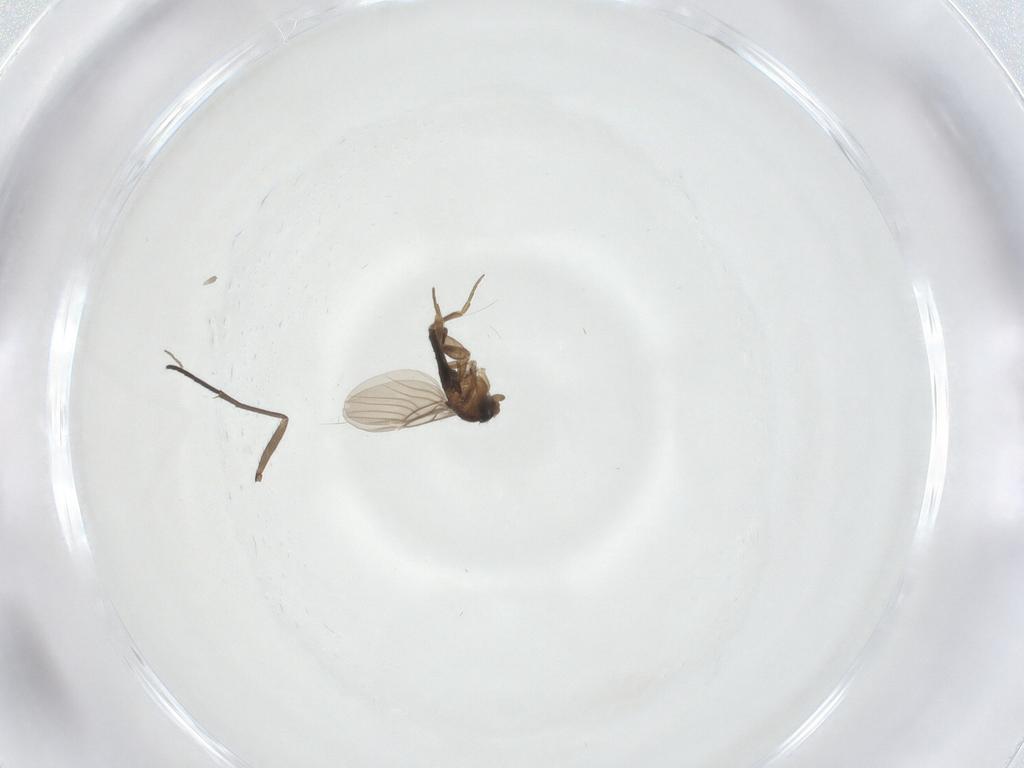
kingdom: Animalia
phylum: Arthropoda
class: Insecta
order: Diptera
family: Sciaridae
